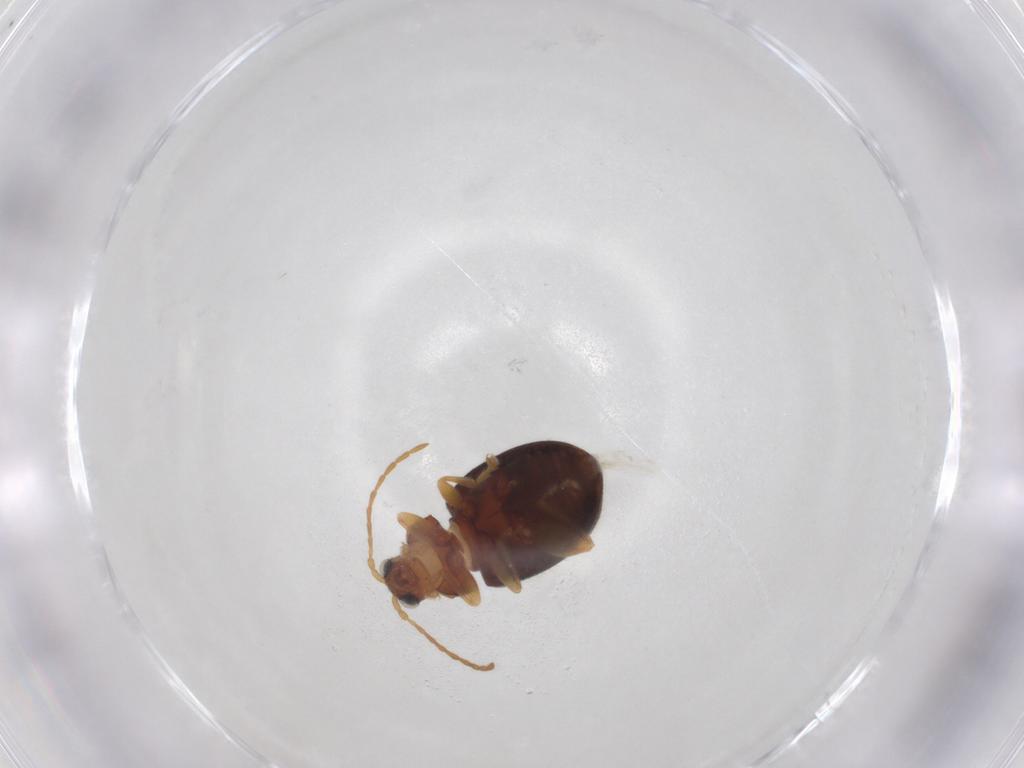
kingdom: Animalia
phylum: Arthropoda
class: Insecta
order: Coleoptera
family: Chrysomelidae
